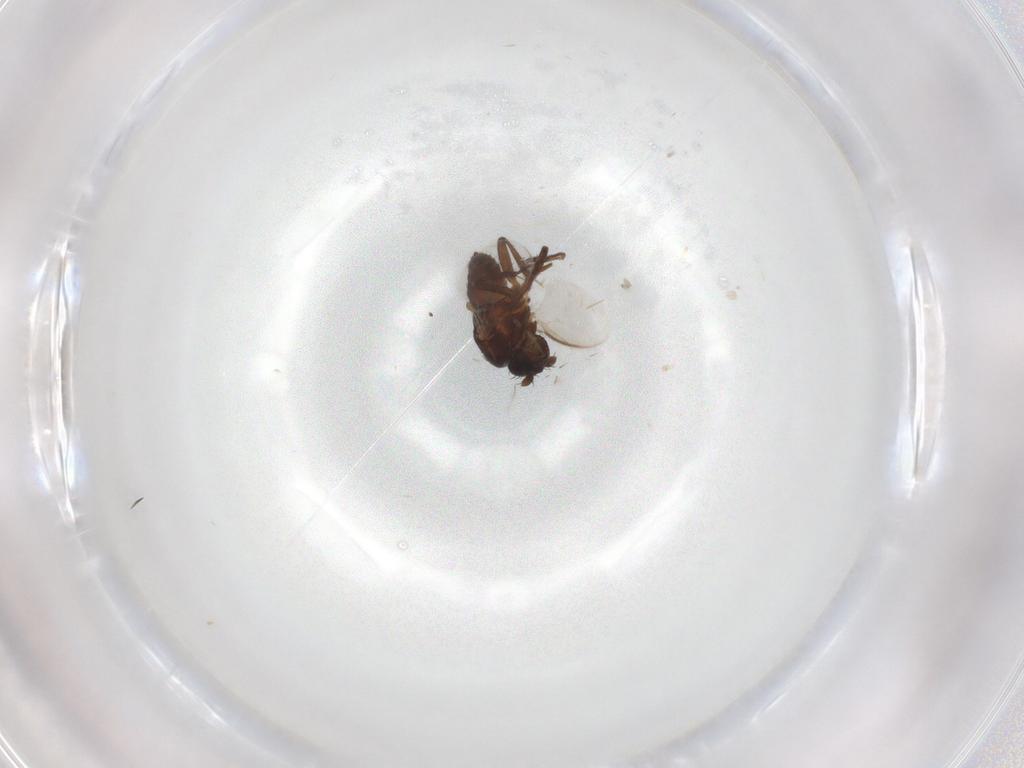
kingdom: Animalia
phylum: Arthropoda
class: Insecta
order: Diptera
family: Sphaeroceridae
